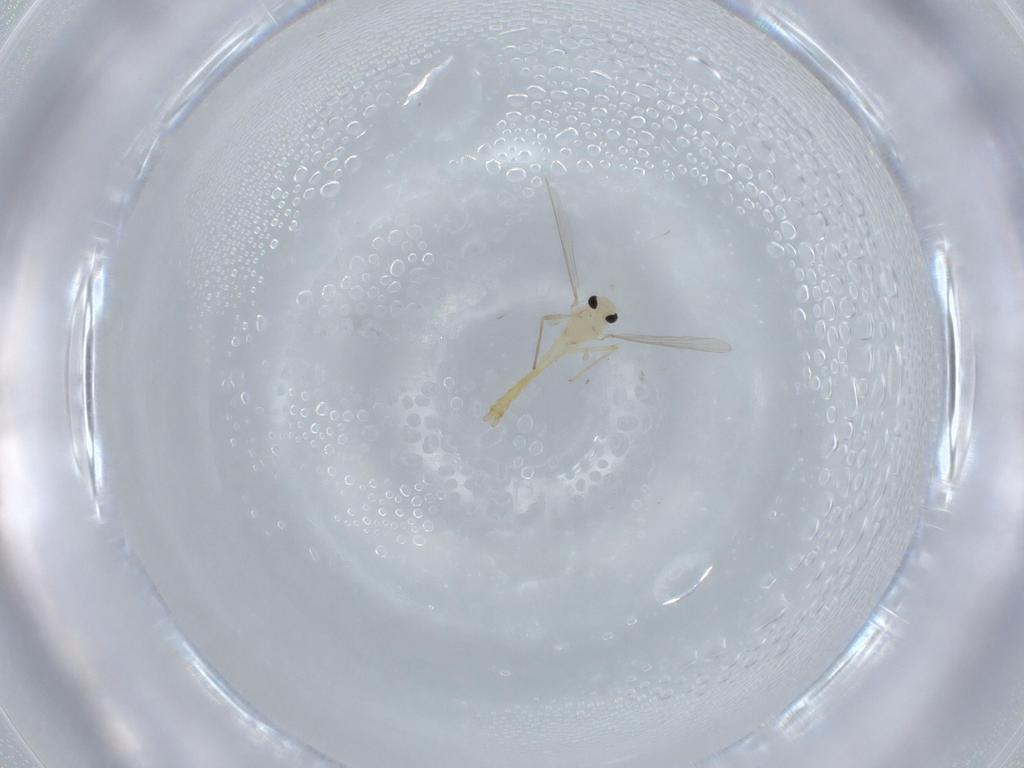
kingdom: Animalia
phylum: Arthropoda
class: Insecta
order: Diptera
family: Chironomidae
